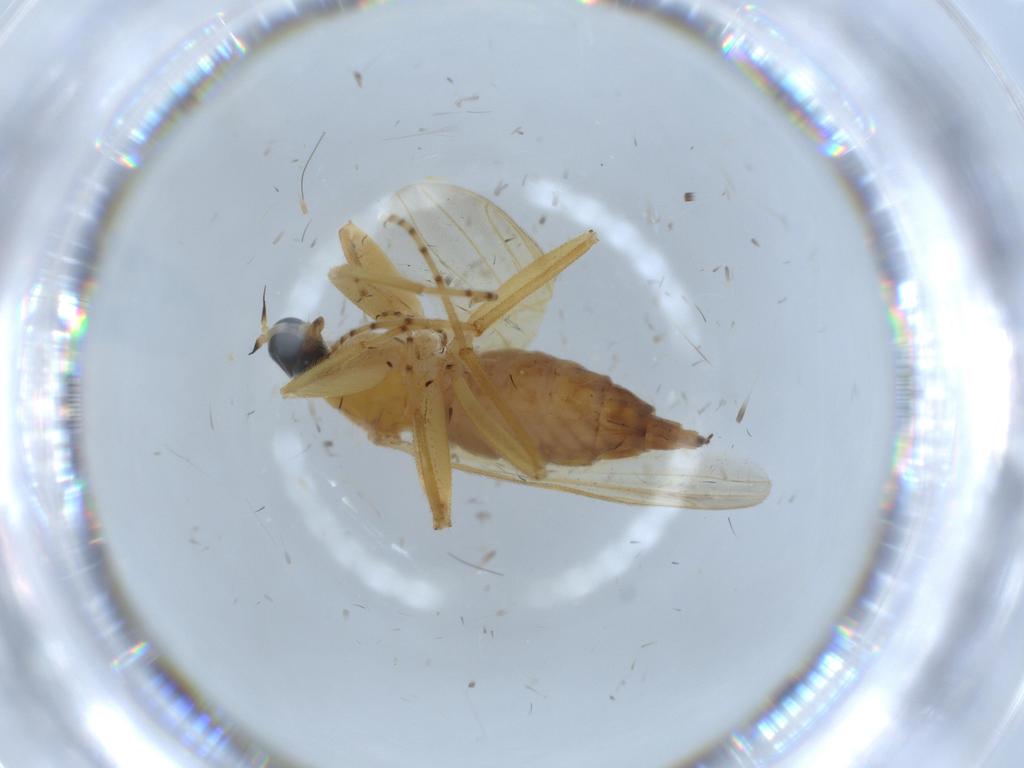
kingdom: Animalia
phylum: Arthropoda
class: Insecta
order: Diptera
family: Hybotidae
